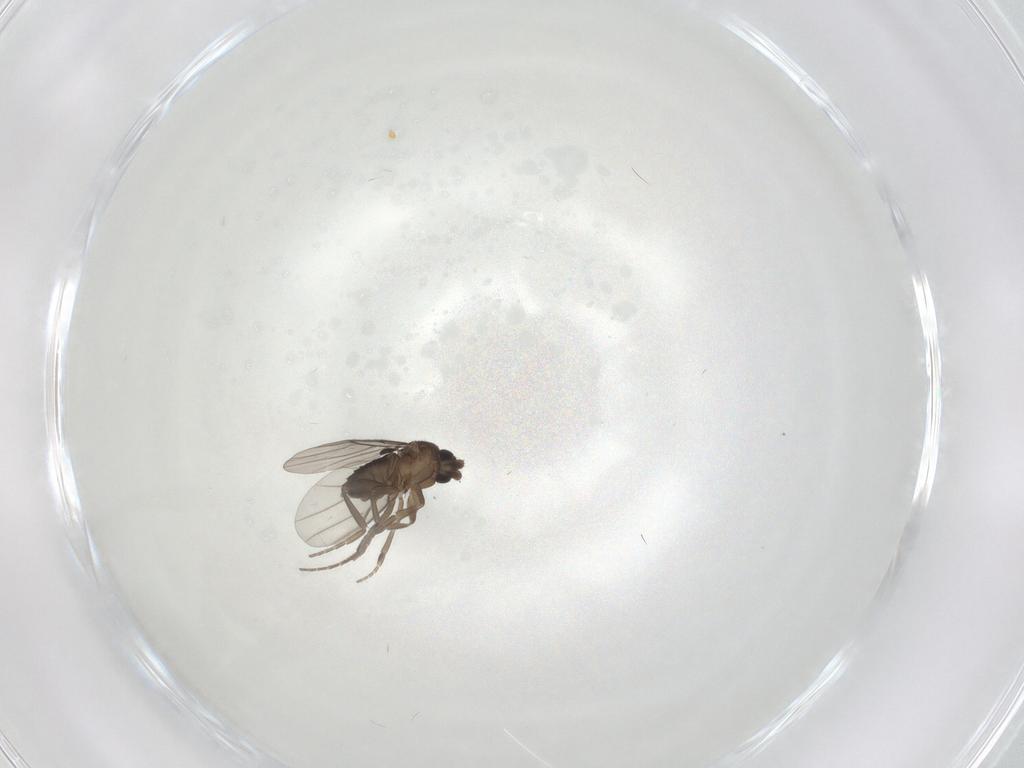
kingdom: Animalia
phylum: Arthropoda
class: Insecta
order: Diptera
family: Phoridae
